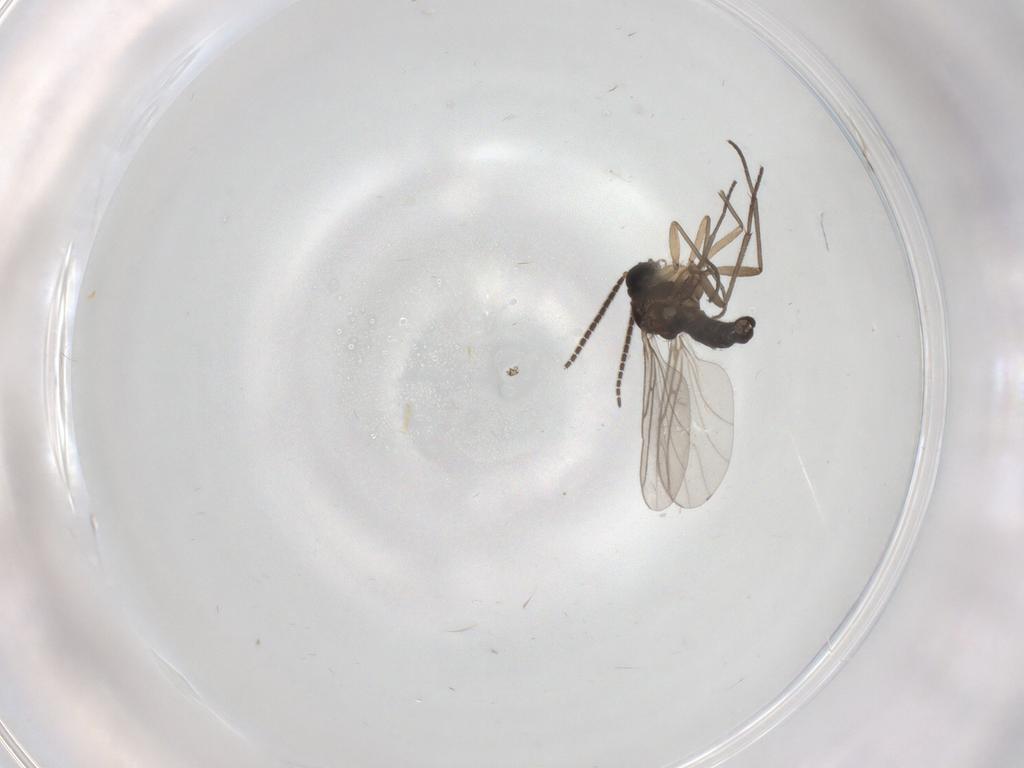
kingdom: Animalia
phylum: Arthropoda
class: Insecta
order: Diptera
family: Sciaridae
